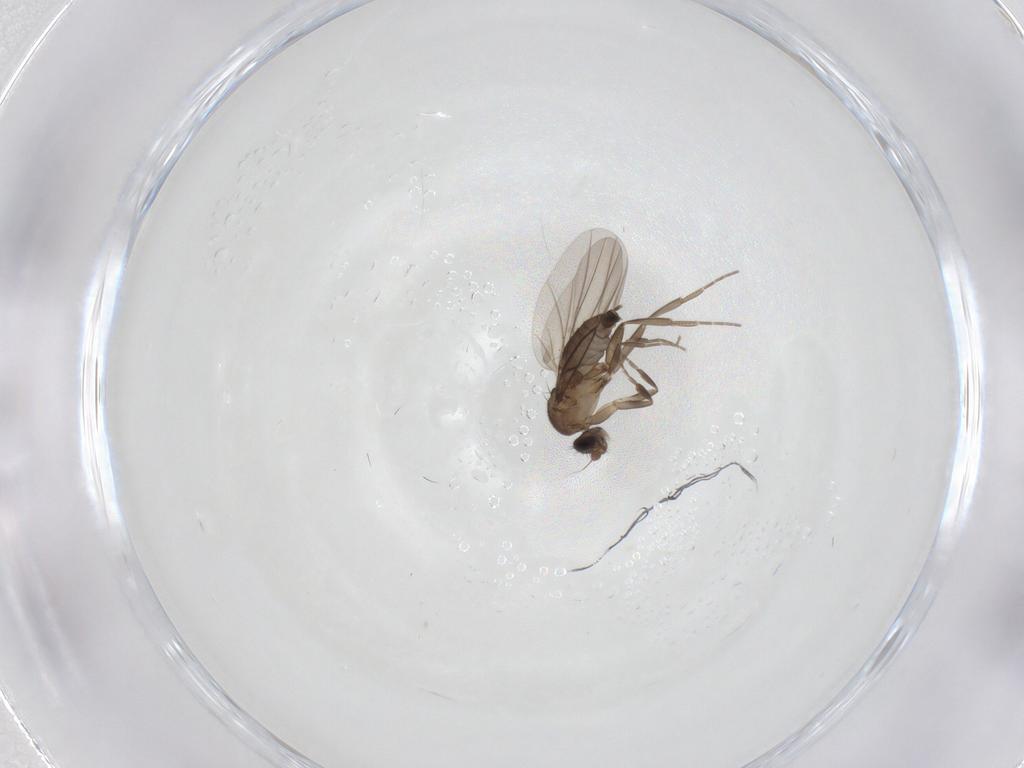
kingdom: Animalia
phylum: Arthropoda
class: Insecta
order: Diptera
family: Phoridae
